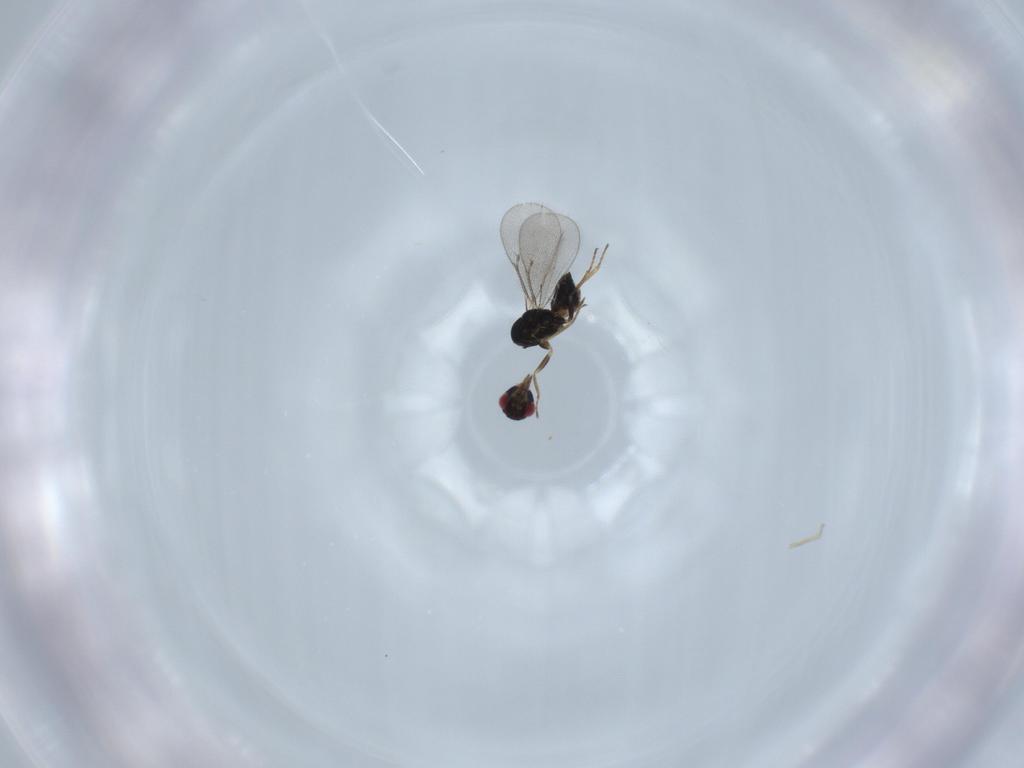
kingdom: Animalia
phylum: Arthropoda
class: Insecta
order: Hymenoptera
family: Eulophidae
